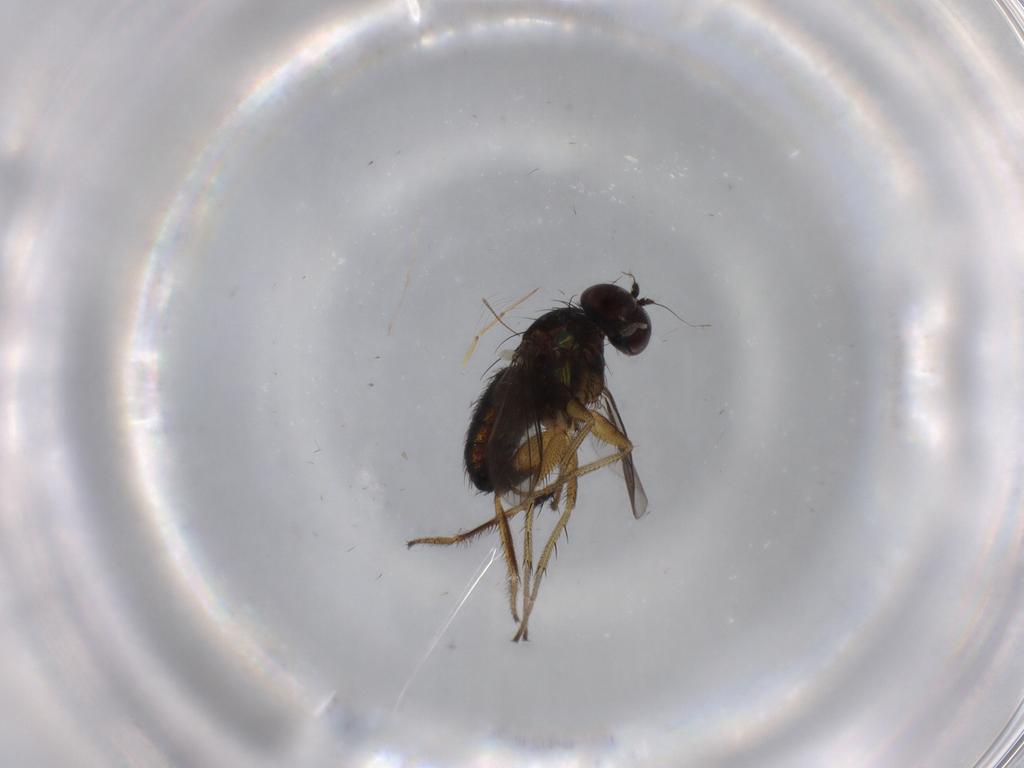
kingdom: Animalia
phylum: Arthropoda
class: Insecta
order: Diptera
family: Dolichopodidae
